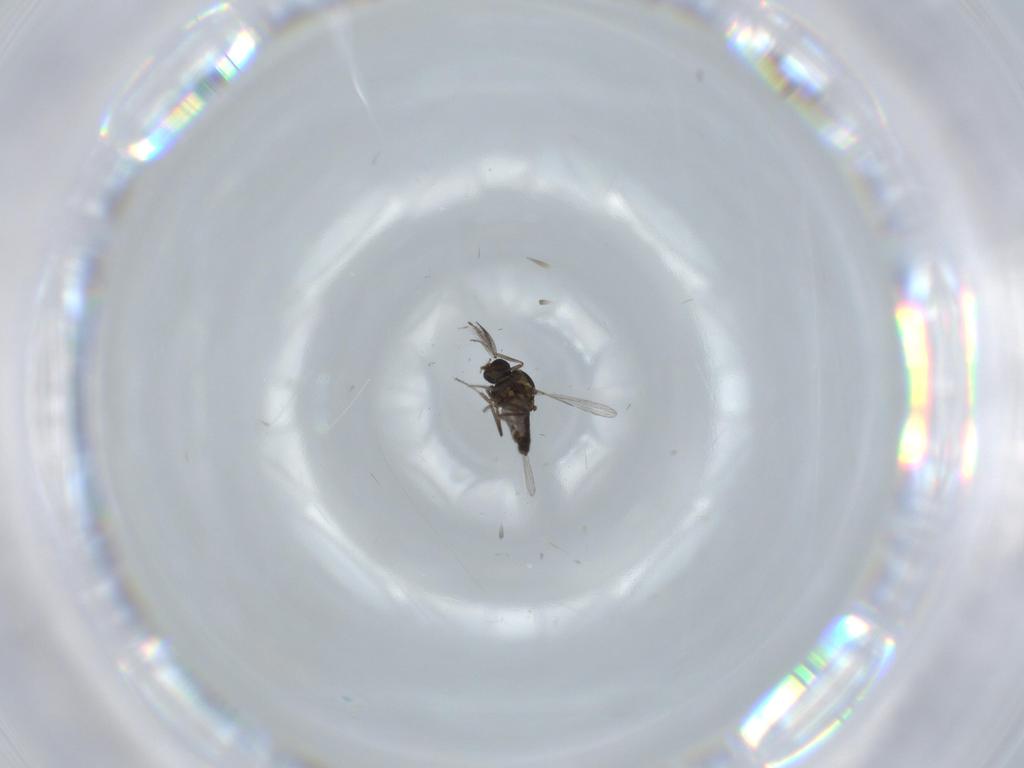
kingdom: Animalia
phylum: Arthropoda
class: Insecta
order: Diptera
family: Ceratopogonidae
